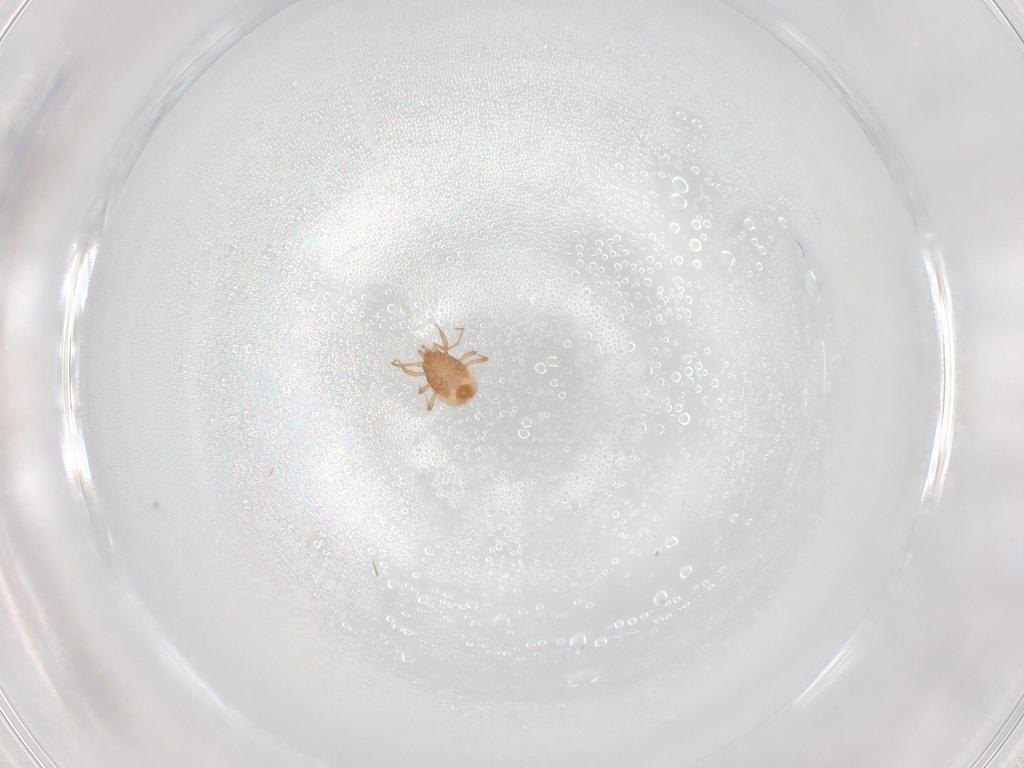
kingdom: Animalia
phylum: Arthropoda
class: Arachnida
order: Mesostigmata
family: Blattisociidae
